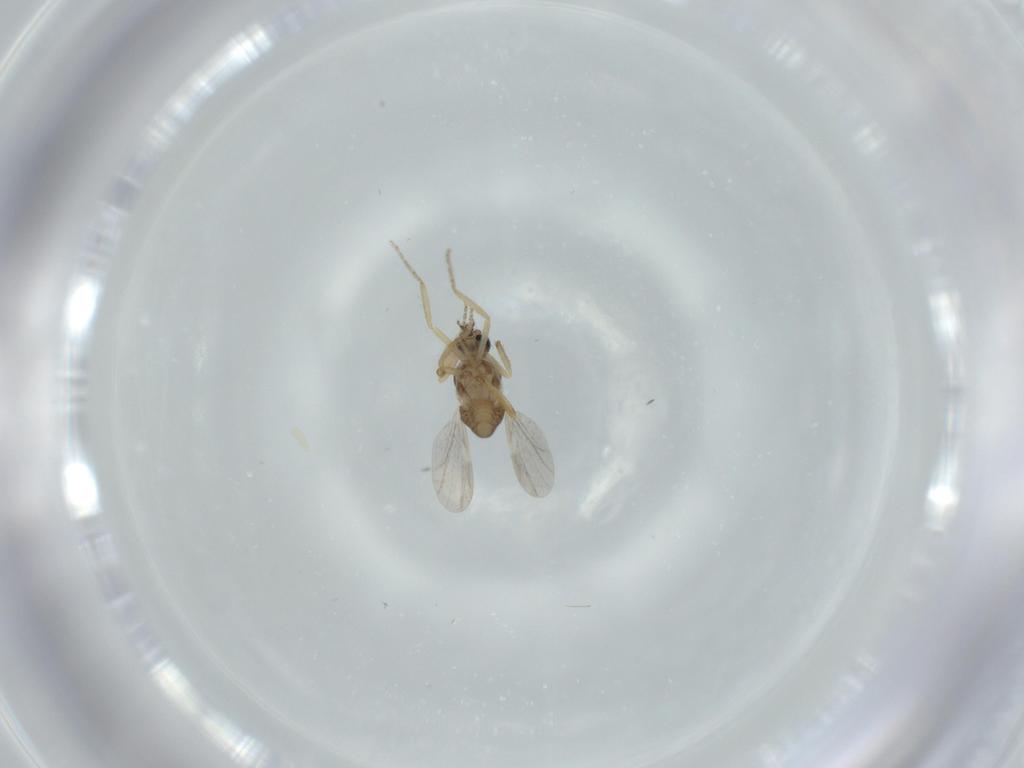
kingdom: Animalia
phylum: Arthropoda
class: Insecta
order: Diptera
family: Ceratopogonidae
